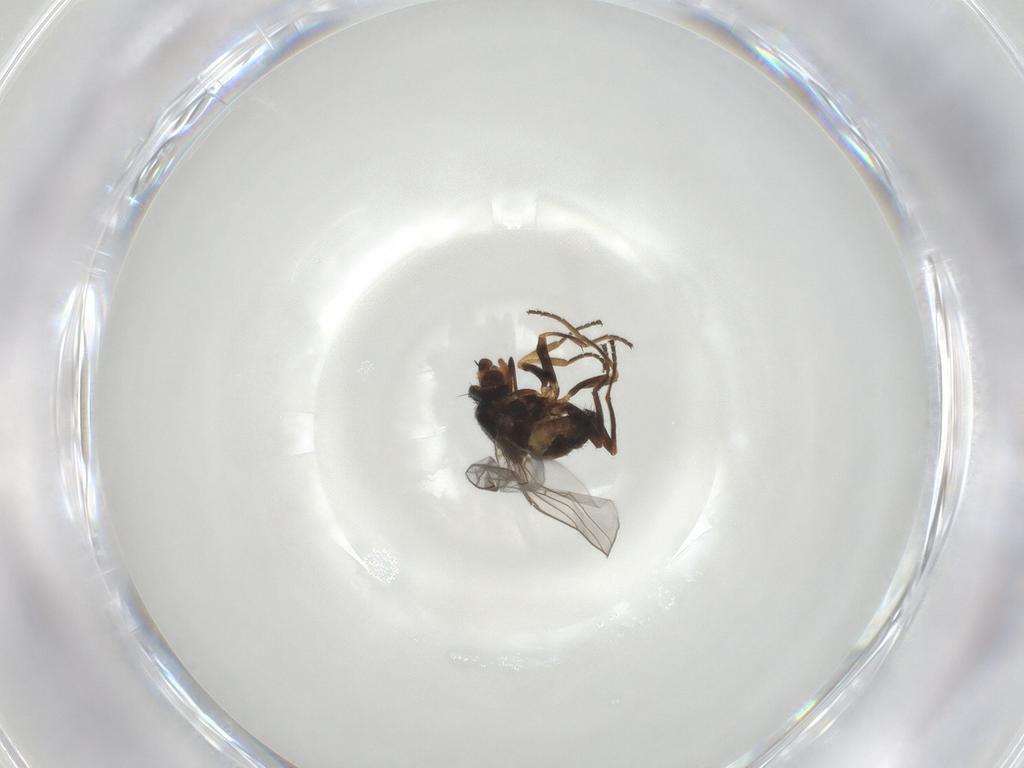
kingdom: Animalia
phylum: Arthropoda
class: Insecta
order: Diptera
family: Chloropidae
